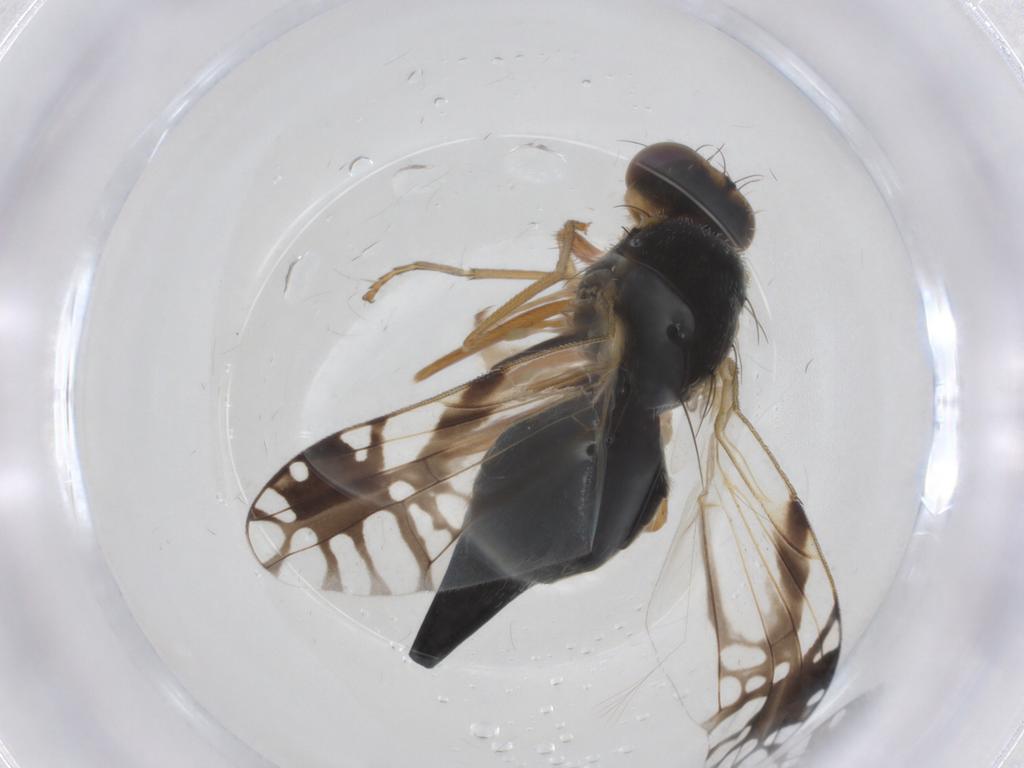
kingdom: Animalia
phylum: Arthropoda
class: Insecta
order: Diptera
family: Tephritidae
